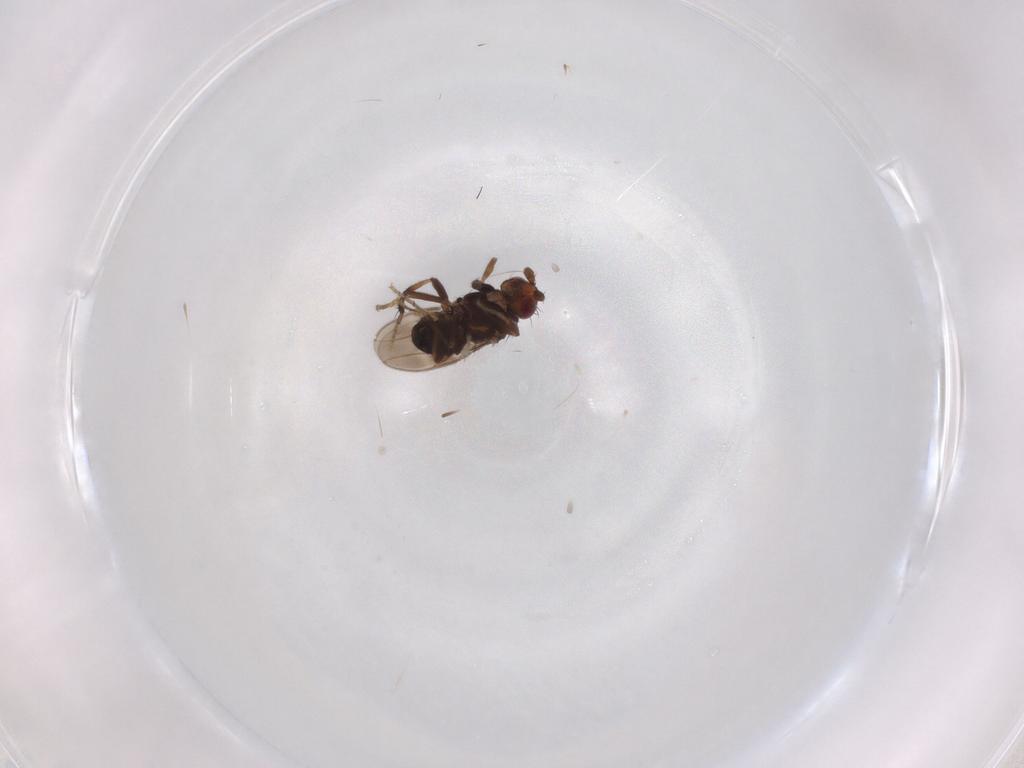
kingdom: Animalia
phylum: Arthropoda
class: Insecta
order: Diptera
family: Sphaeroceridae
